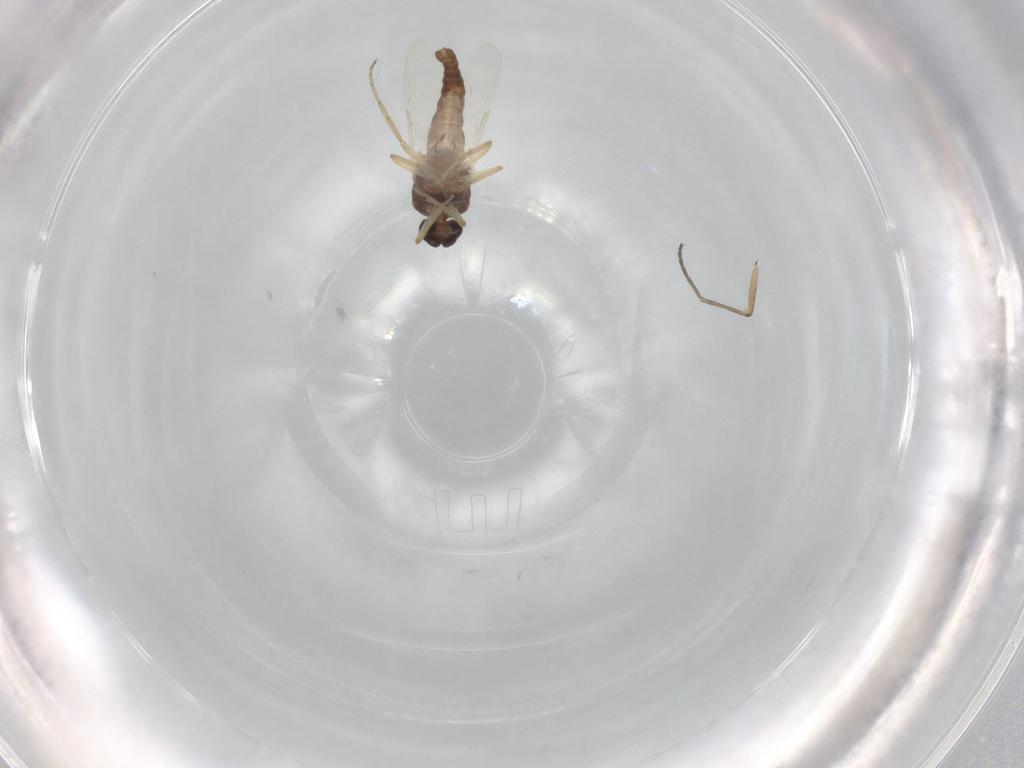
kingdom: Animalia
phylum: Arthropoda
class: Insecta
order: Diptera
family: Ceratopogonidae
